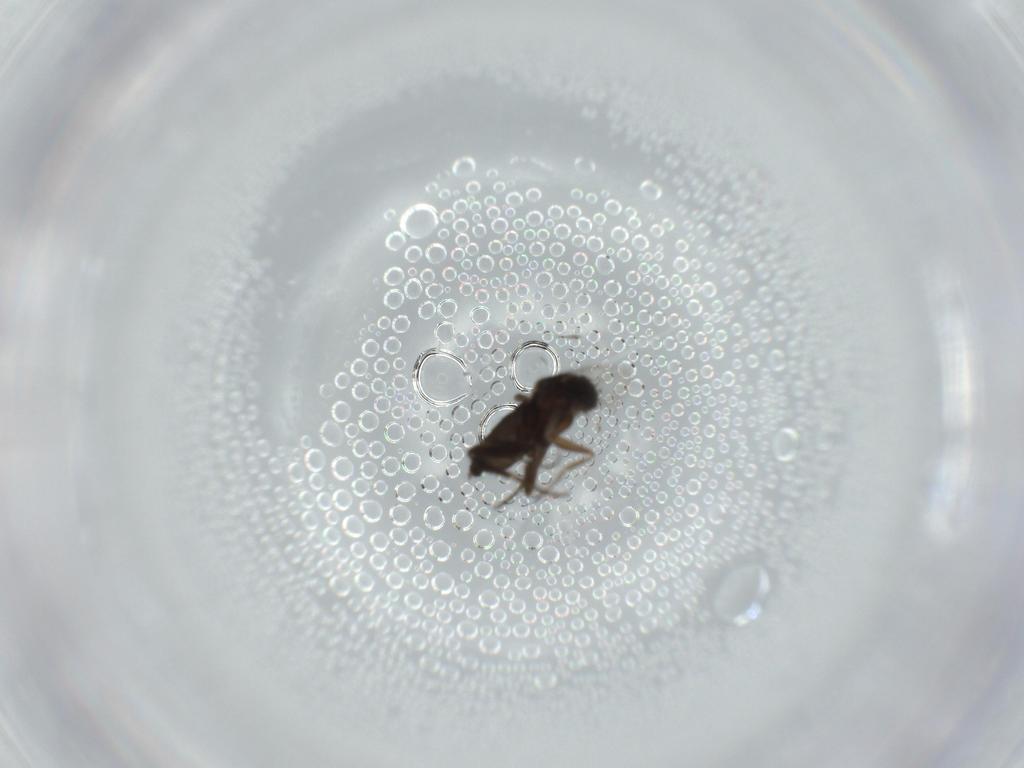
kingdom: Animalia
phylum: Arthropoda
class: Insecta
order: Diptera
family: Phoridae
